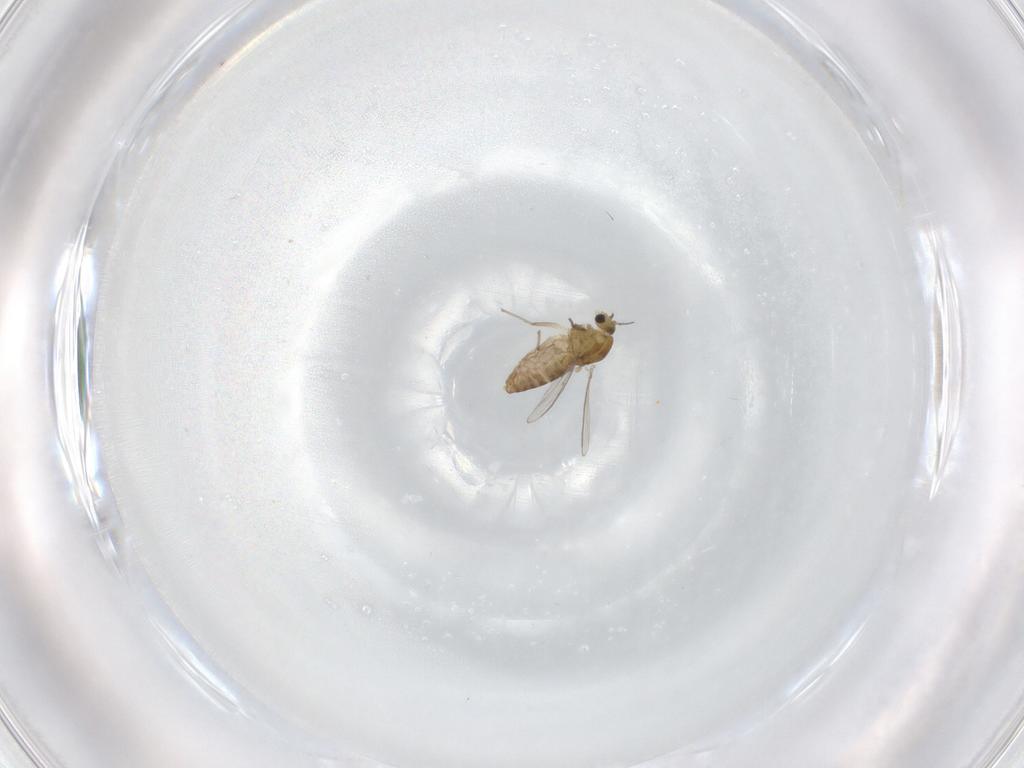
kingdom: Animalia
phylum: Arthropoda
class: Insecta
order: Diptera
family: Chironomidae
